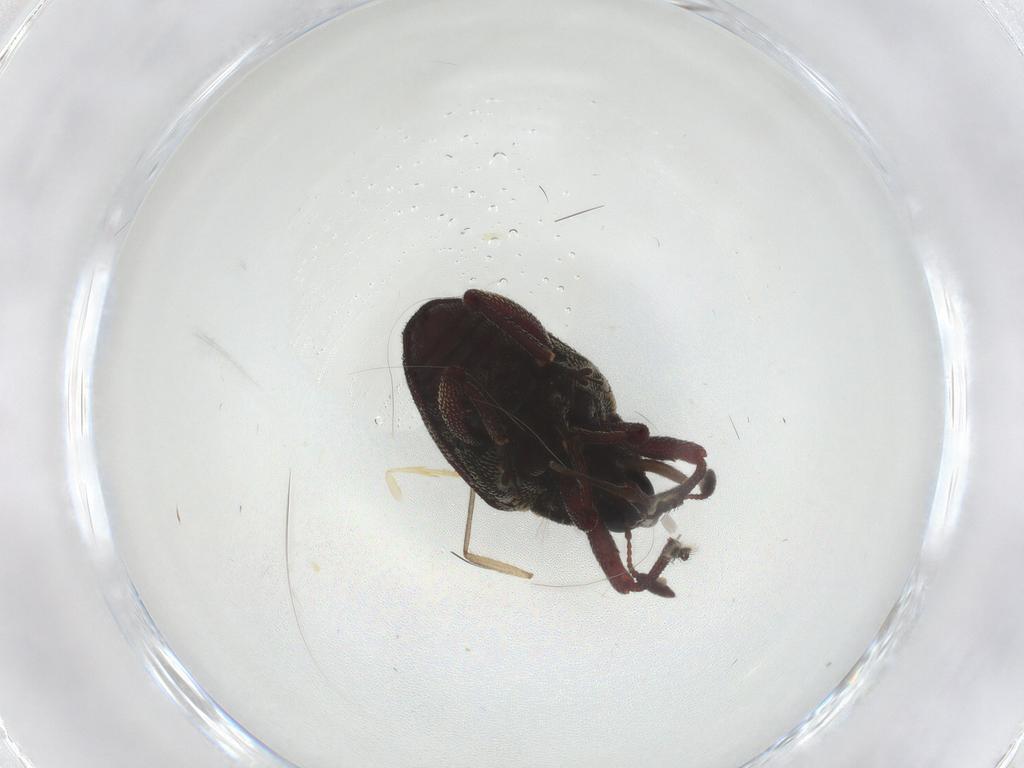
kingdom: Animalia
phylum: Arthropoda
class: Insecta
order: Coleoptera
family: Curculionidae
